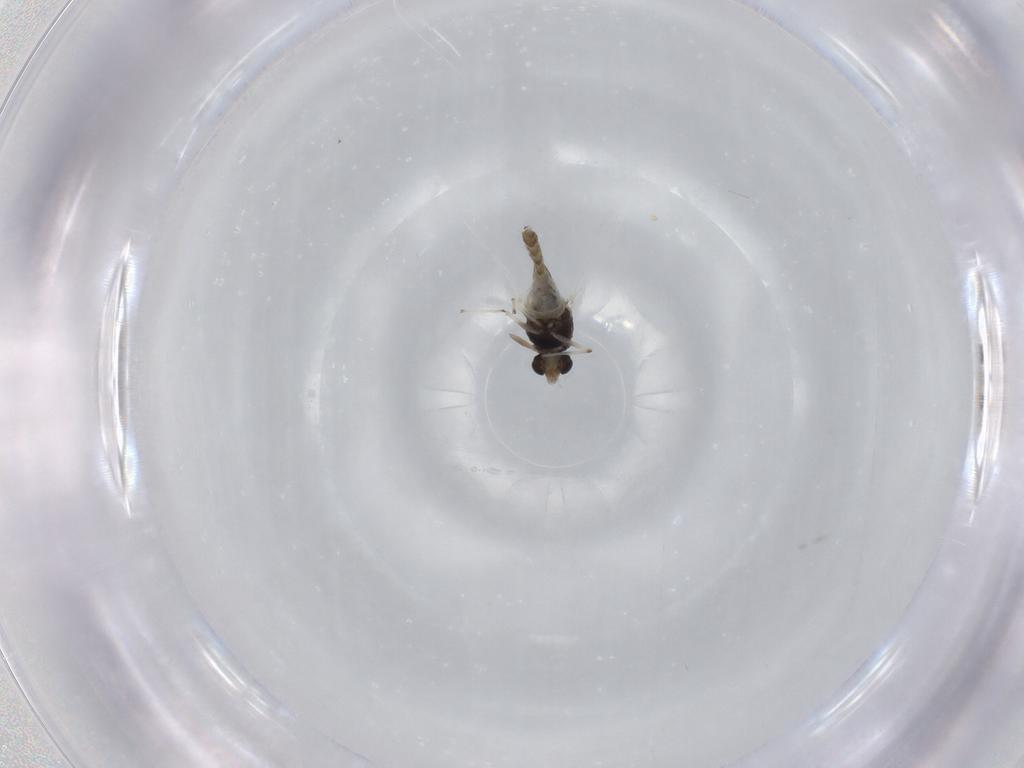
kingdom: Animalia
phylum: Arthropoda
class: Insecta
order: Diptera
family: Chironomidae
